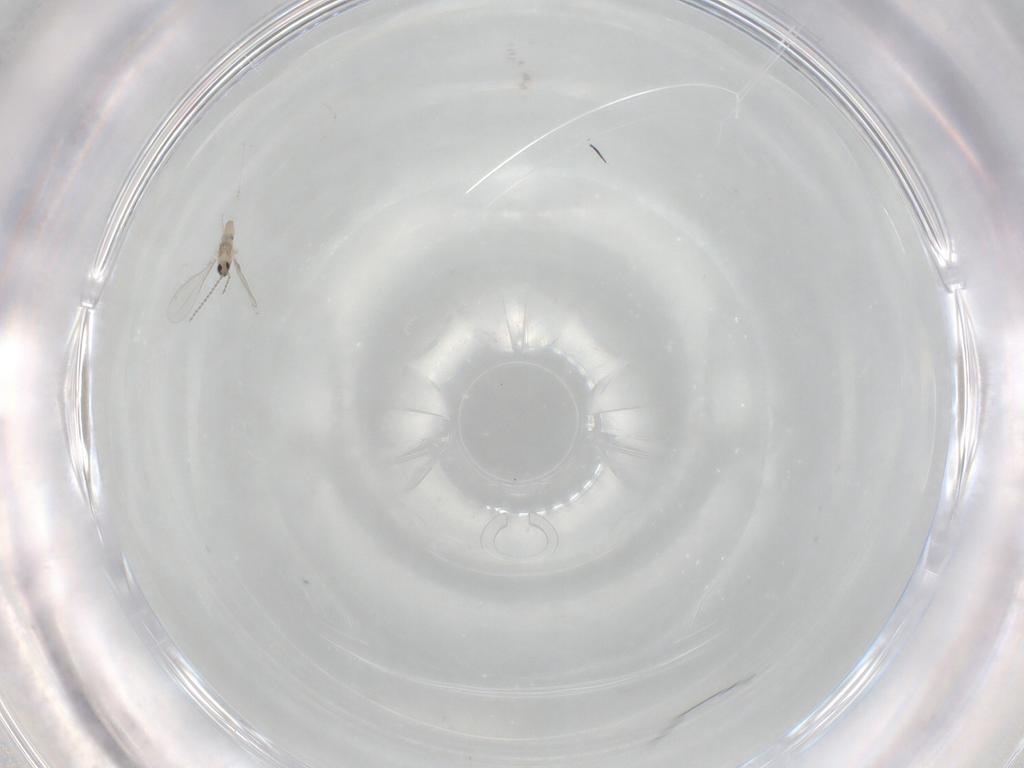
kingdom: Animalia
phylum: Arthropoda
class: Insecta
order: Diptera
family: Cecidomyiidae
